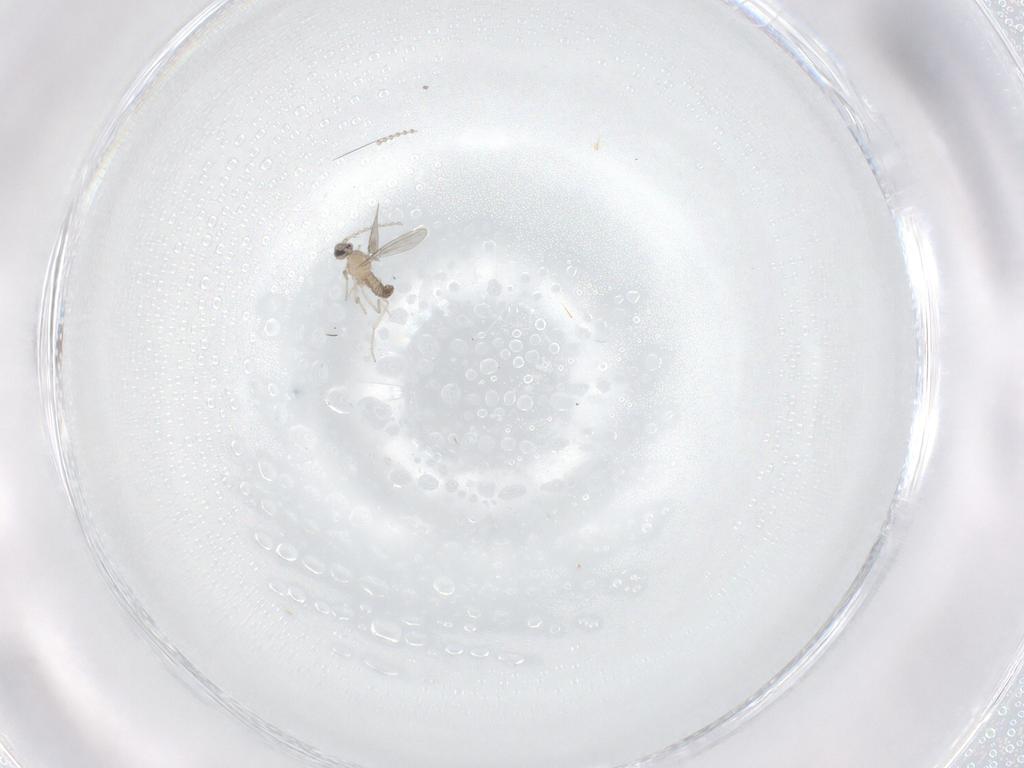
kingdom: Animalia
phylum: Arthropoda
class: Insecta
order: Diptera
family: Cecidomyiidae
